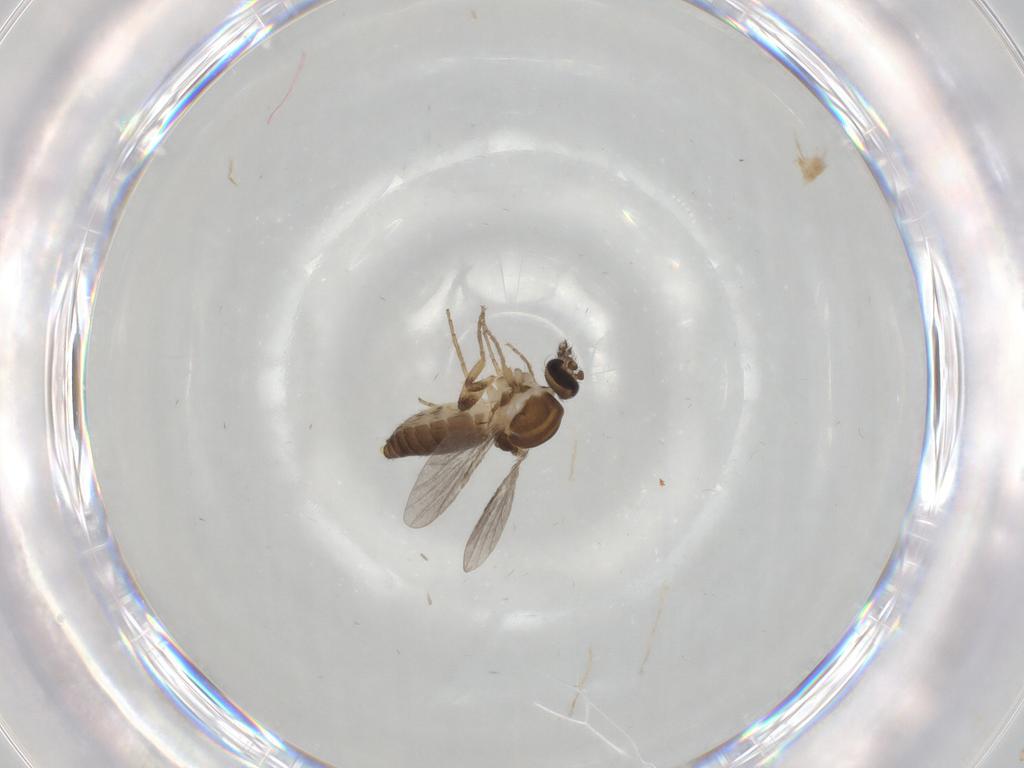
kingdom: Animalia
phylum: Arthropoda
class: Insecta
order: Diptera
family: Ceratopogonidae
